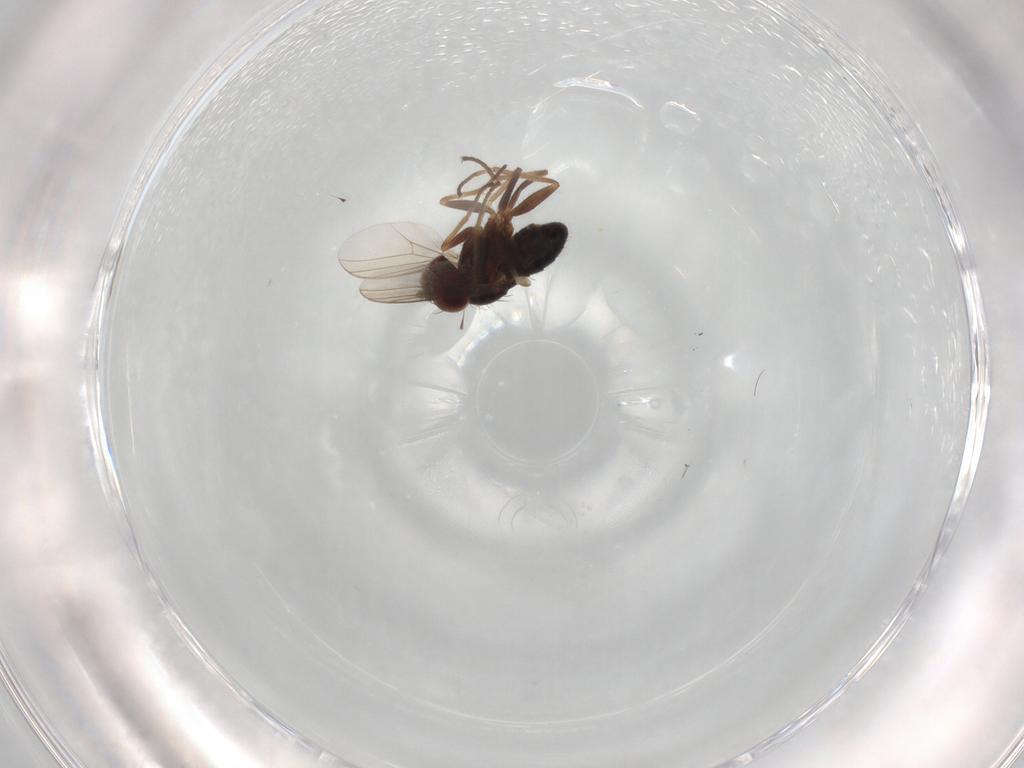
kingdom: Animalia
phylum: Arthropoda
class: Insecta
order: Diptera
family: Dolichopodidae
